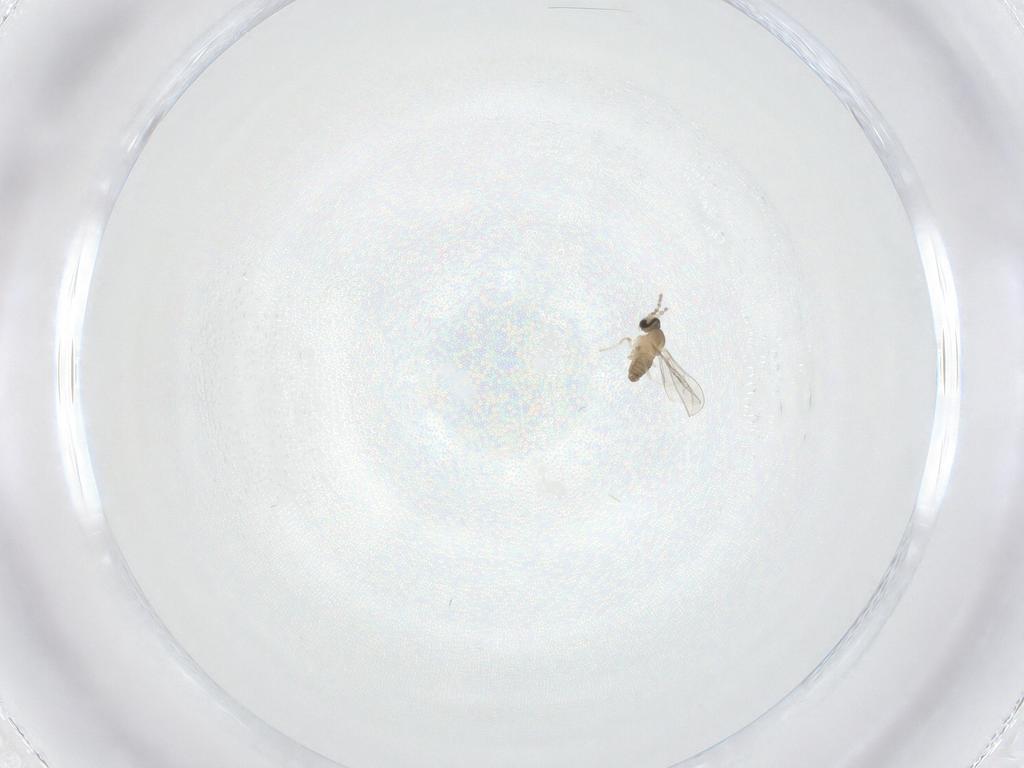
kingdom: Animalia
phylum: Arthropoda
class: Insecta
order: Diptera
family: Cecidomyiidae
